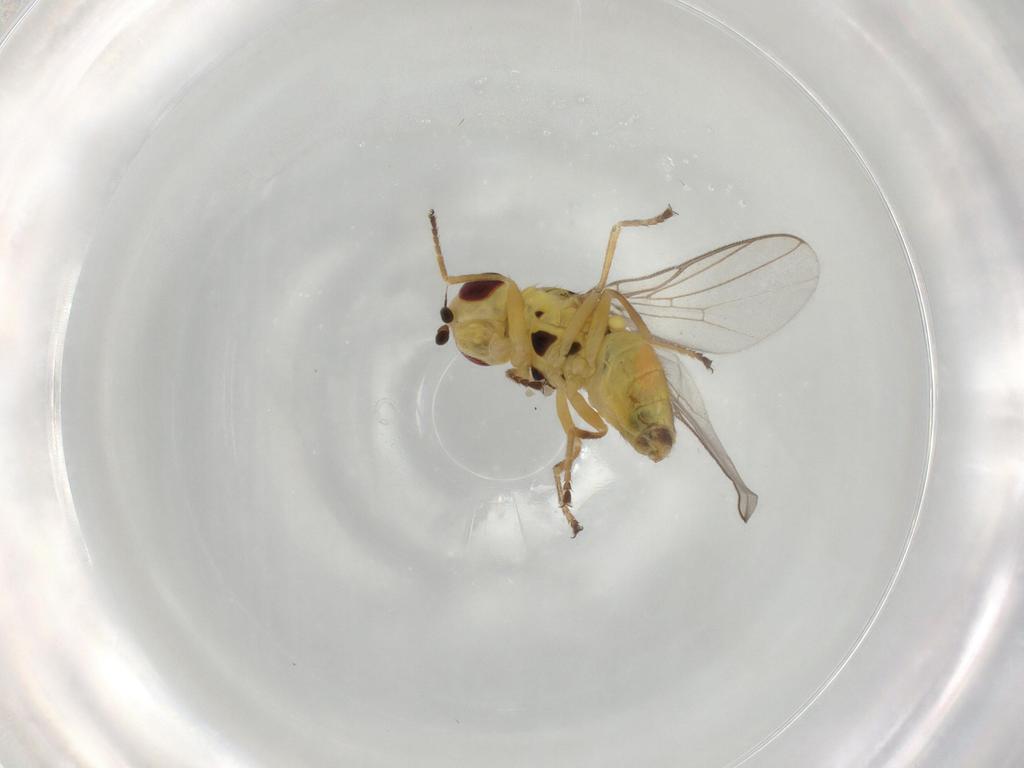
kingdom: Animalia
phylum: Arthropoda
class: Insecta
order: Diptera
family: Chloropidae
